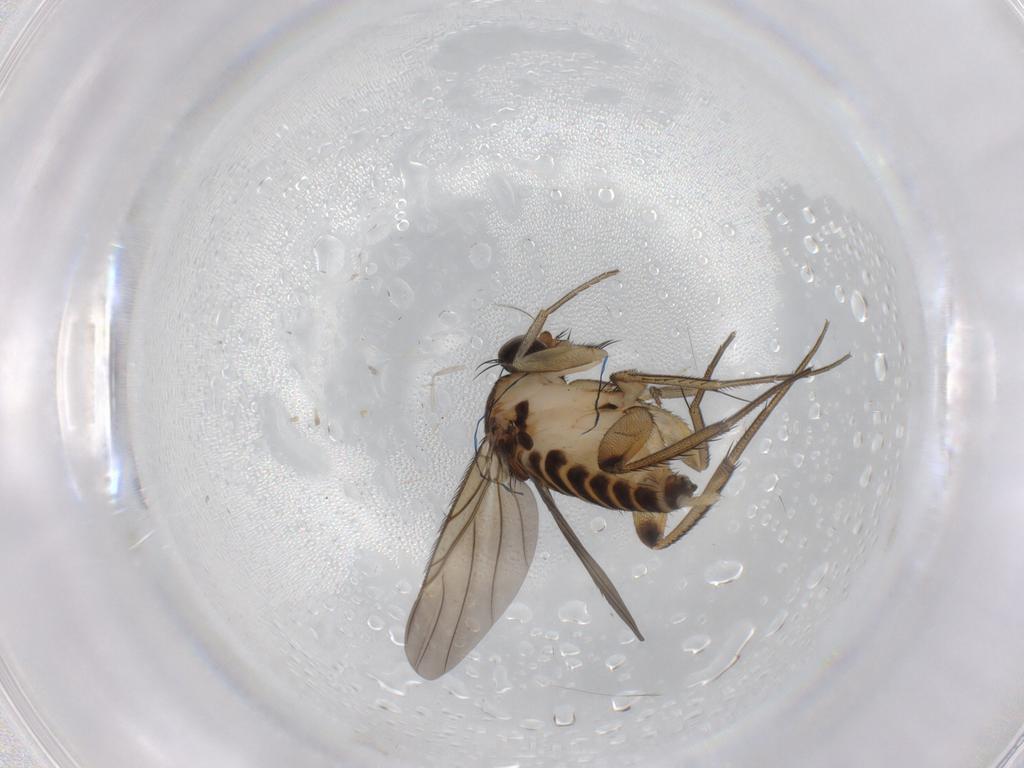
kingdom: Animalia
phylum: Arthropoda
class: Insecta
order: Diptera
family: Phoridae
